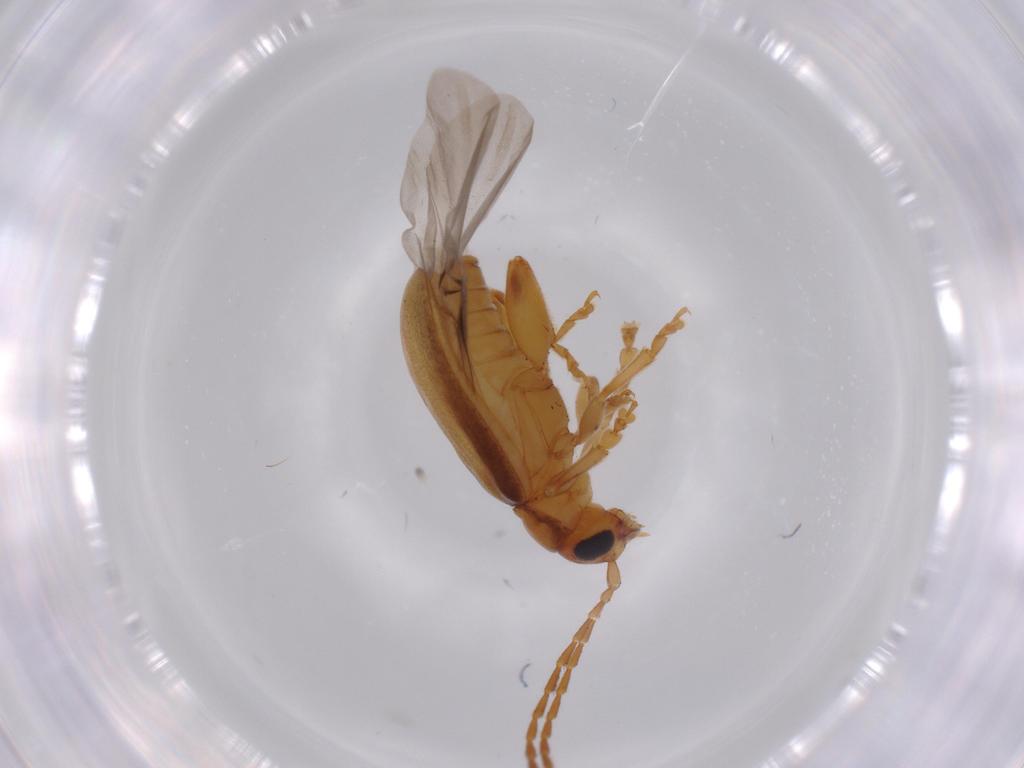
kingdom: Animalia
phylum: Arthropoda
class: Insecta
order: Coleoptera
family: Chrysomelidae
